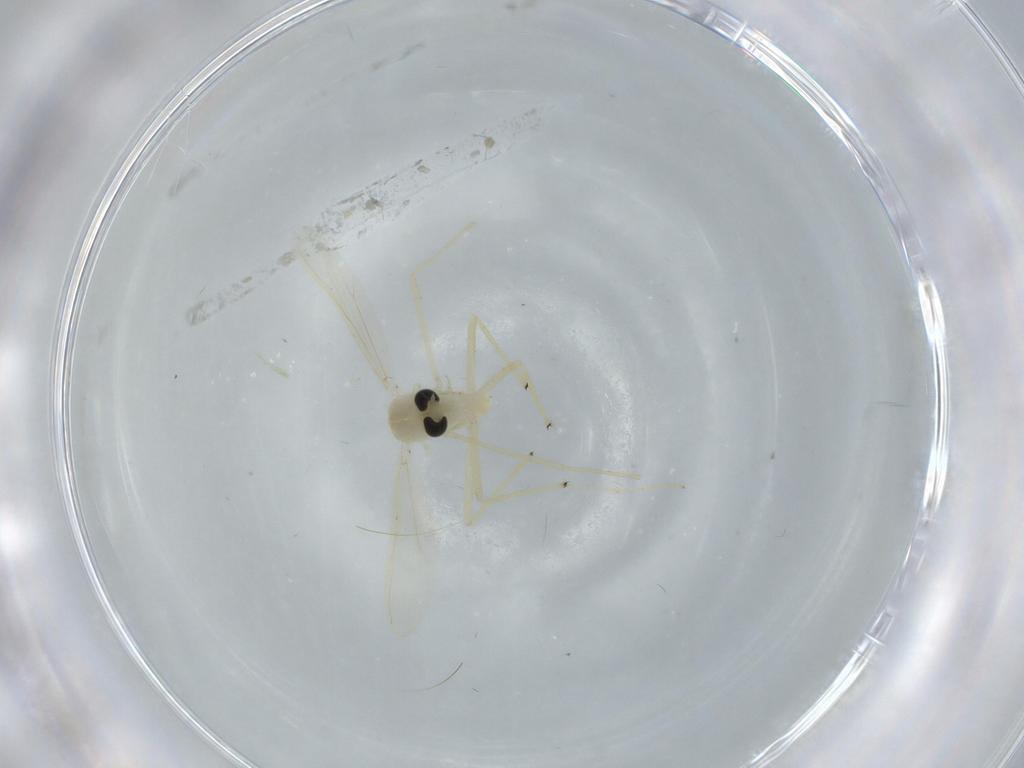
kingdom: Animalia
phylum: Arthropoda
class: Insecta
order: Diptera
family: Chironomidae
